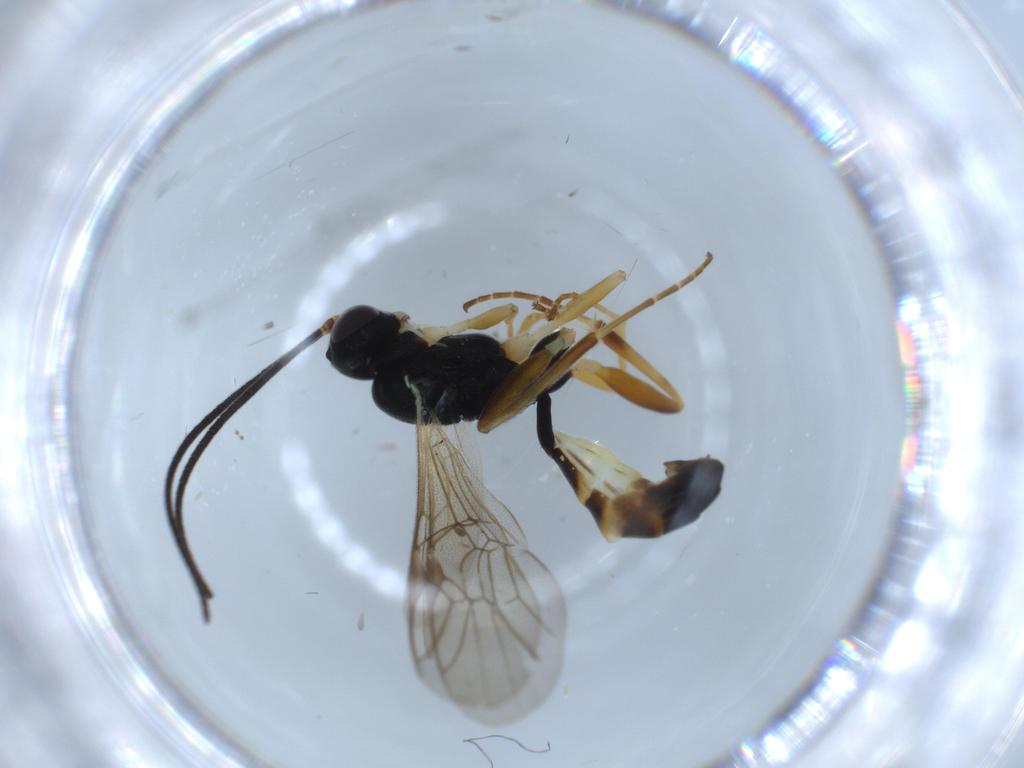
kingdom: Animalia
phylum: Arthropoda
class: Insecta
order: Hymenoptera
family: Ichneumonidae
